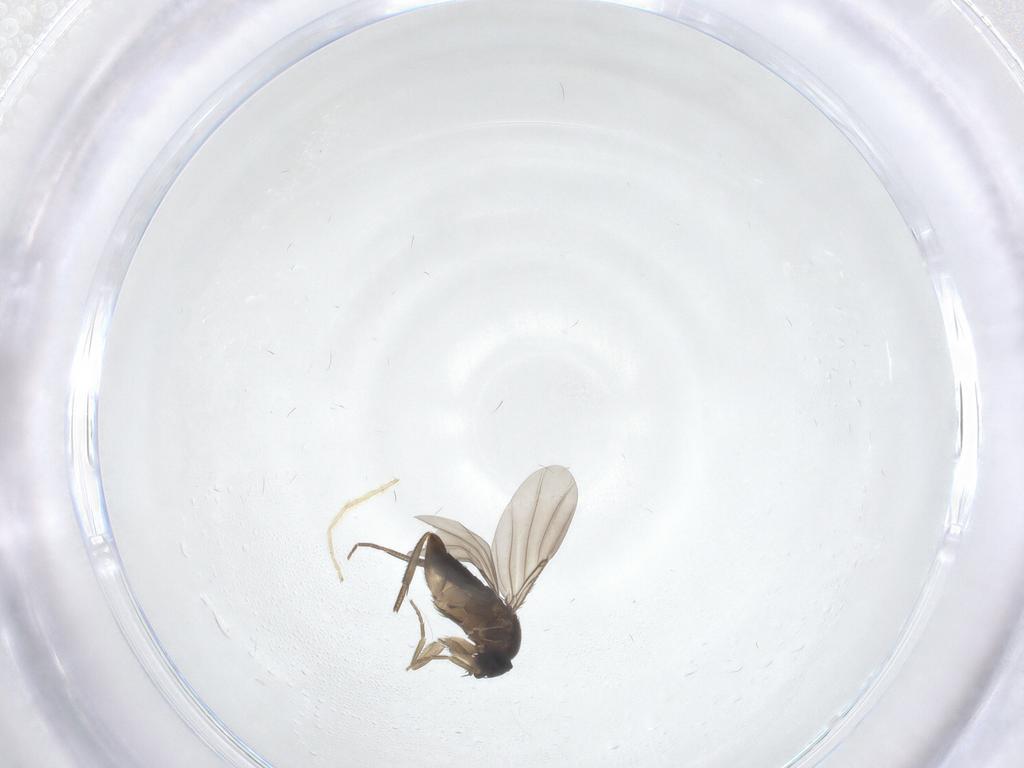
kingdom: Animalia
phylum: Arthropoda
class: Insecta
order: Diptera
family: Phoridae
